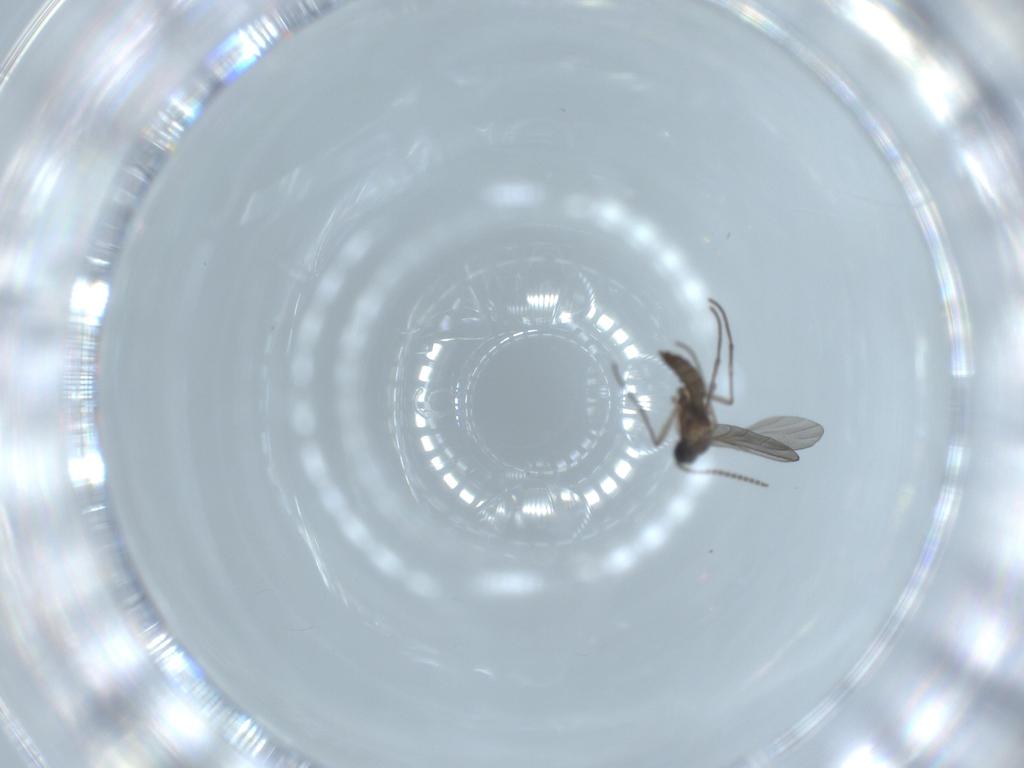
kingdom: Animalia
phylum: Arthropoda
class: Insecta
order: Diptera
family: Sciaridae
